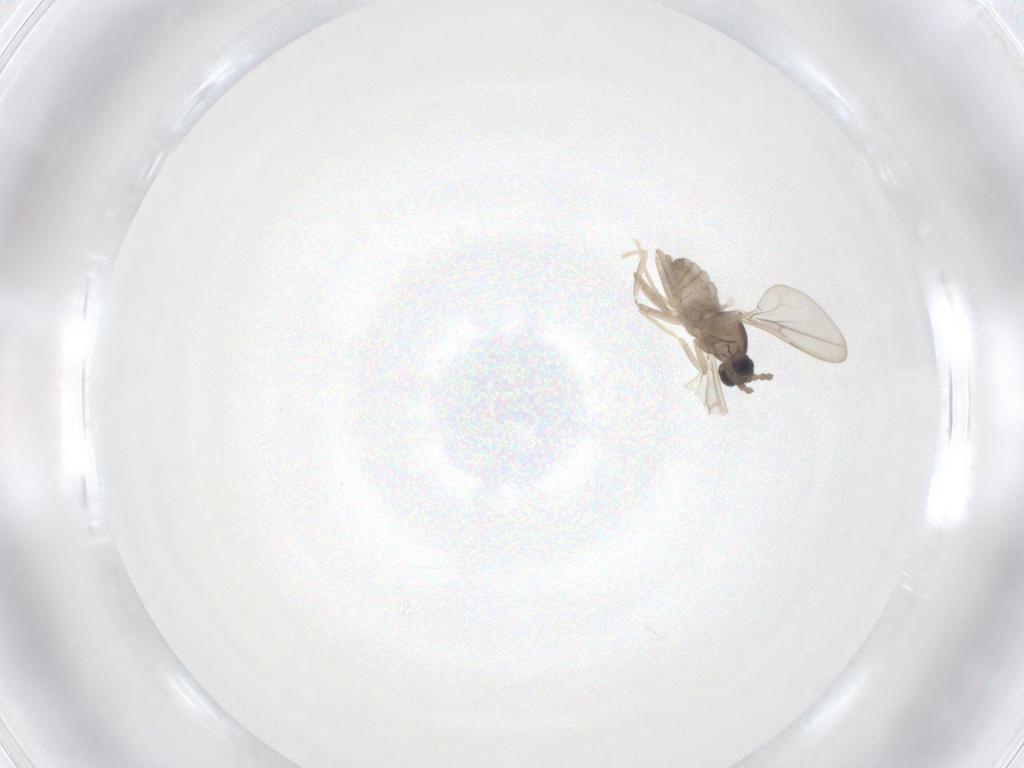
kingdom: Animalia
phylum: Arthropoda
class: Insecta
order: Diptera
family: Cecidomyiidae
